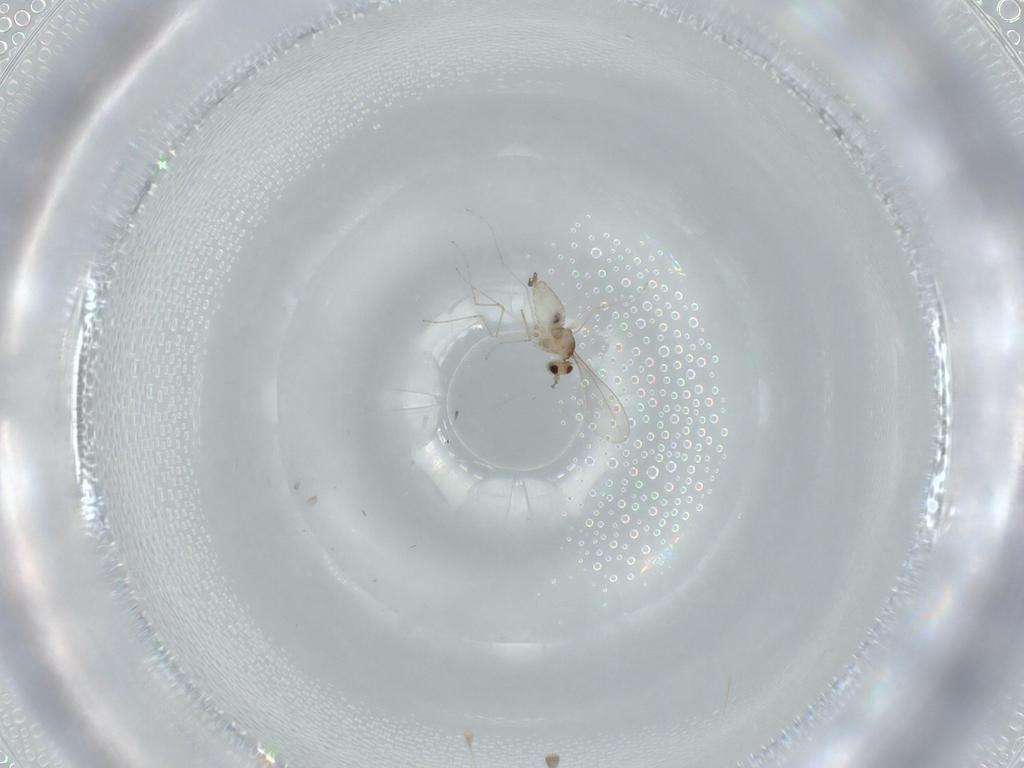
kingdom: Animalia
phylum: Arthropoda
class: Insecta
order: Diptera
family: Cecidomyiidae
